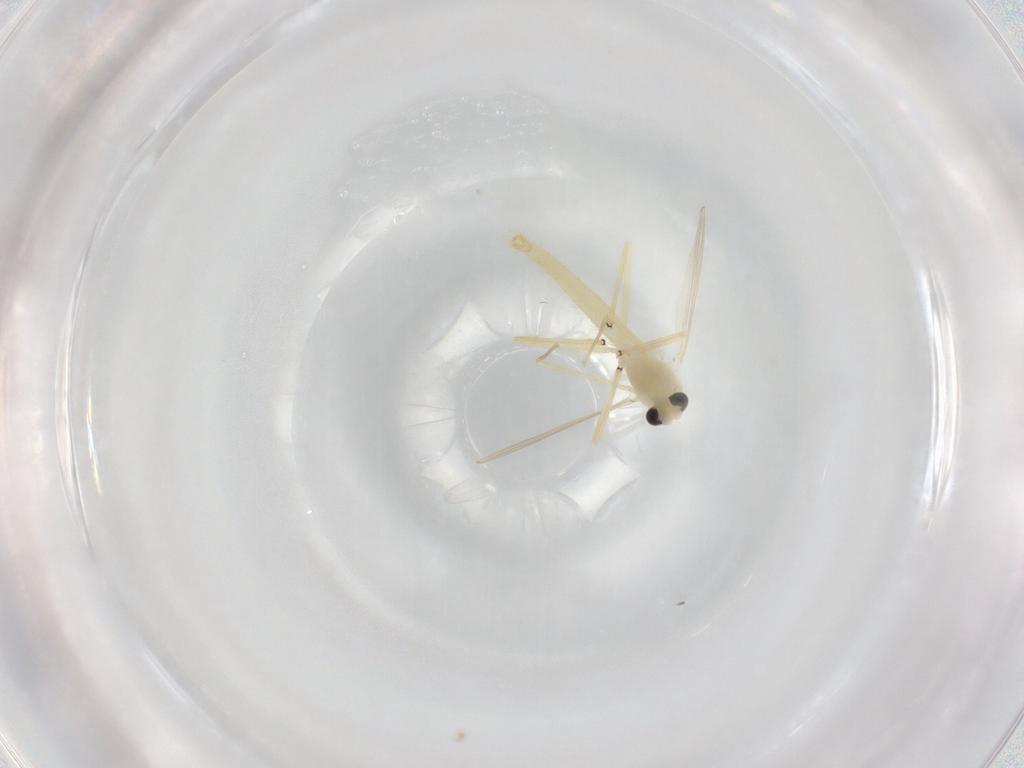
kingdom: Animalia
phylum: Arthropoda
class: Insecta
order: Diptera
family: Chironomidae
